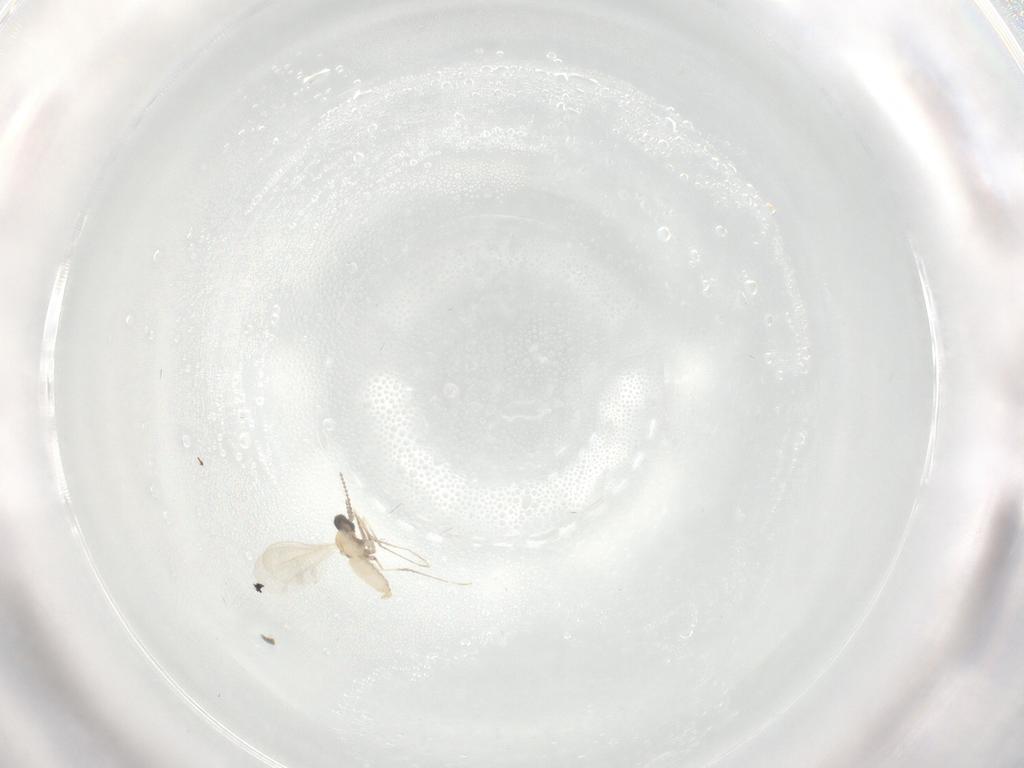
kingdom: Animalia
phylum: Arthropoda
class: Insecta
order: Diptera
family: Cecidomyiidae
